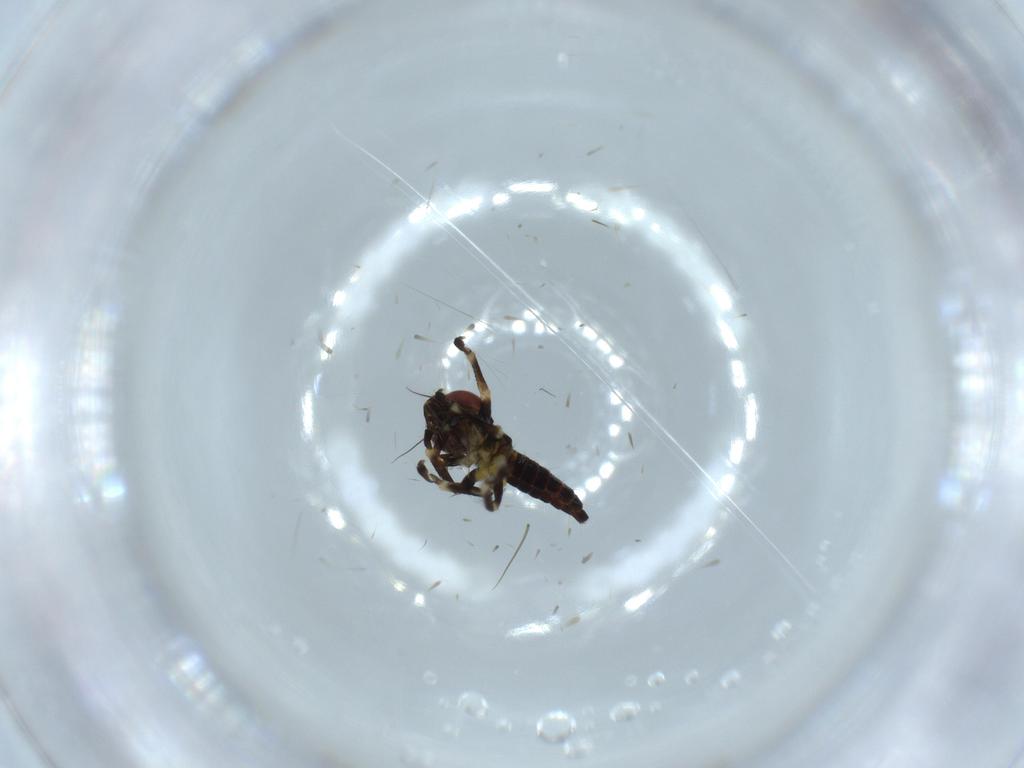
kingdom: Animalia
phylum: Arthropoda
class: Insecta
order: Hemiptera
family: Cicadellidae
